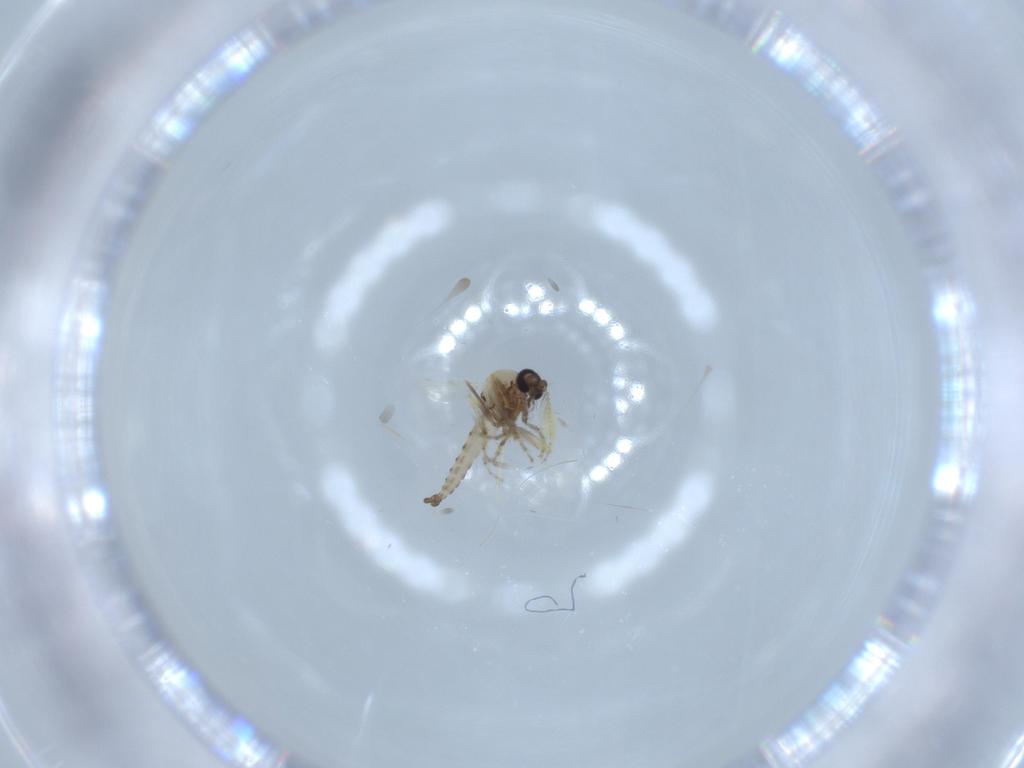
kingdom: Animalia
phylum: Arthropoda
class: Insecta
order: Diptera
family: Ceratopogonidae
